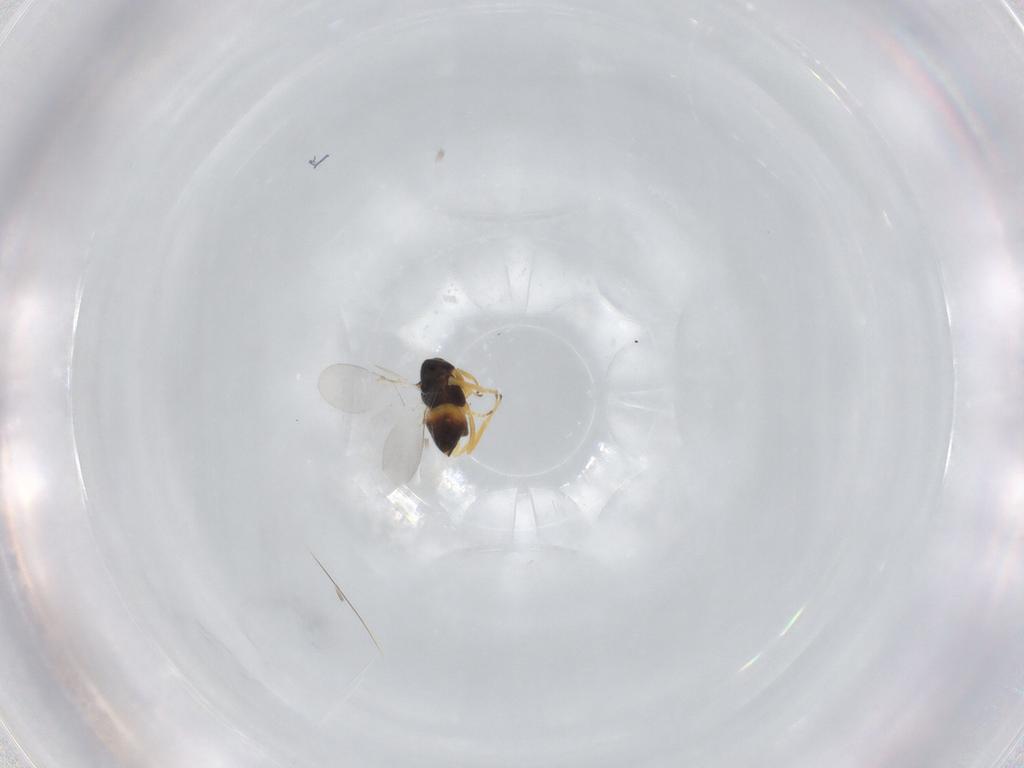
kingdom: Animalia
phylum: Arthropoda
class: Insecta
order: Hymenoptera
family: Encyrtidae
